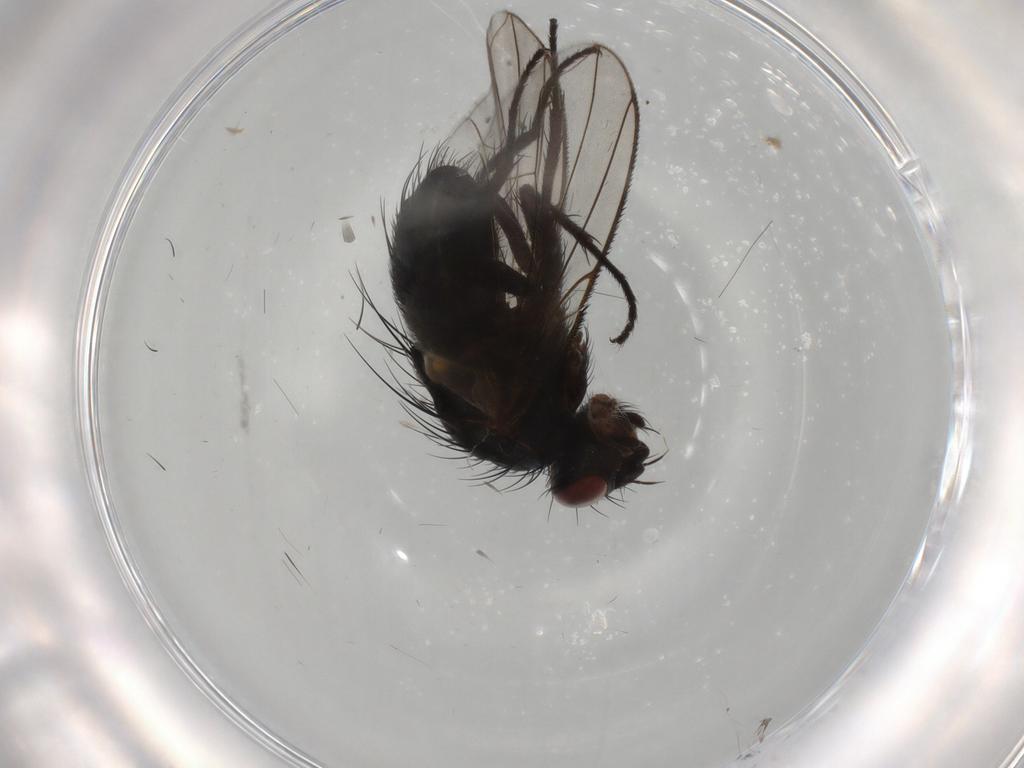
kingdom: Animalia
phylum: Arthropoda
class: Insecta
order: Diptera
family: Tachinidae
